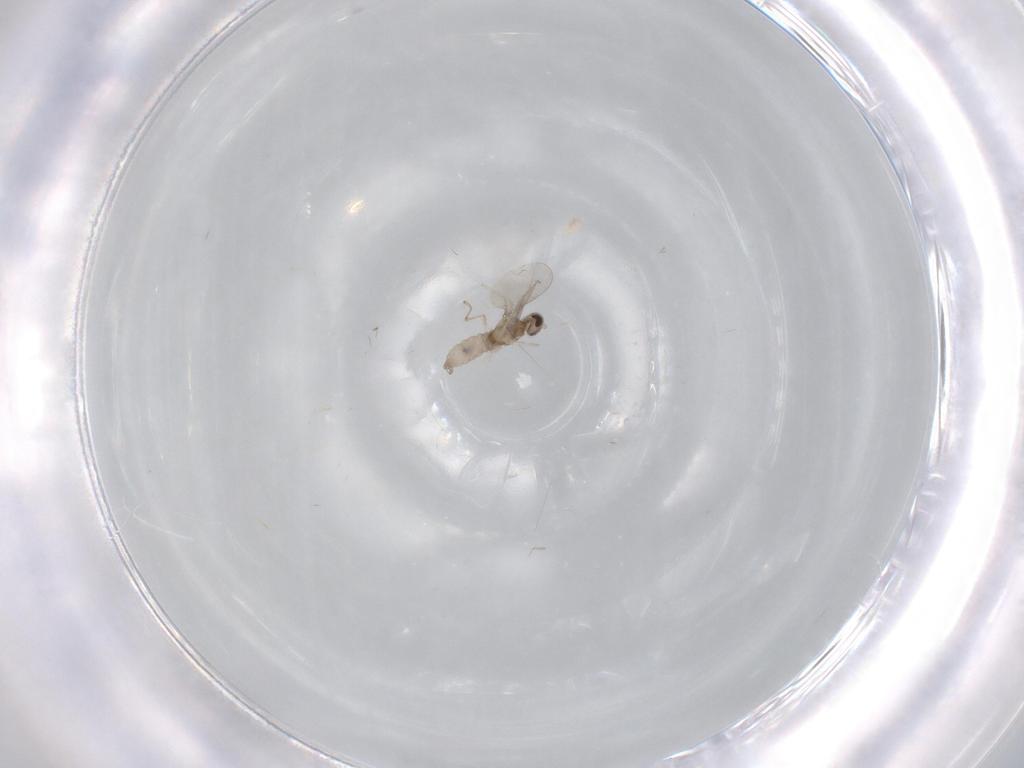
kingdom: Animalia
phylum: Arthropoda
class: Insecta
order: Diptera
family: Cecidomyiidae
